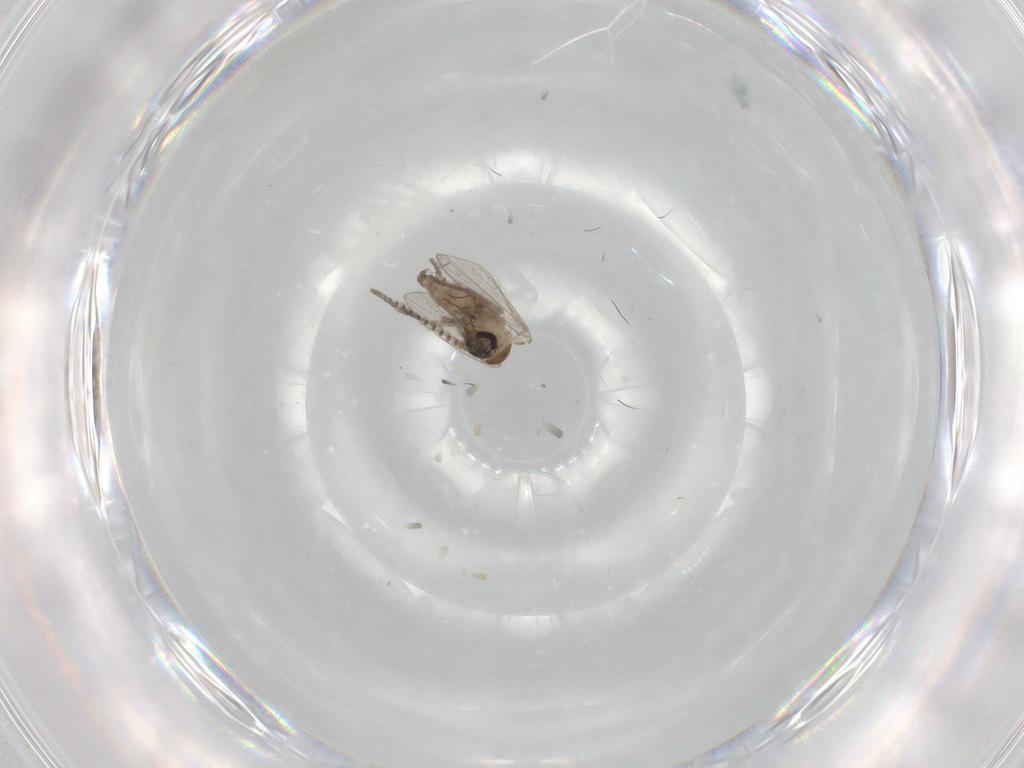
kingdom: Animalia
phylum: Arthropoda
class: Insecta
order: Diptera
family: Psychodidae
